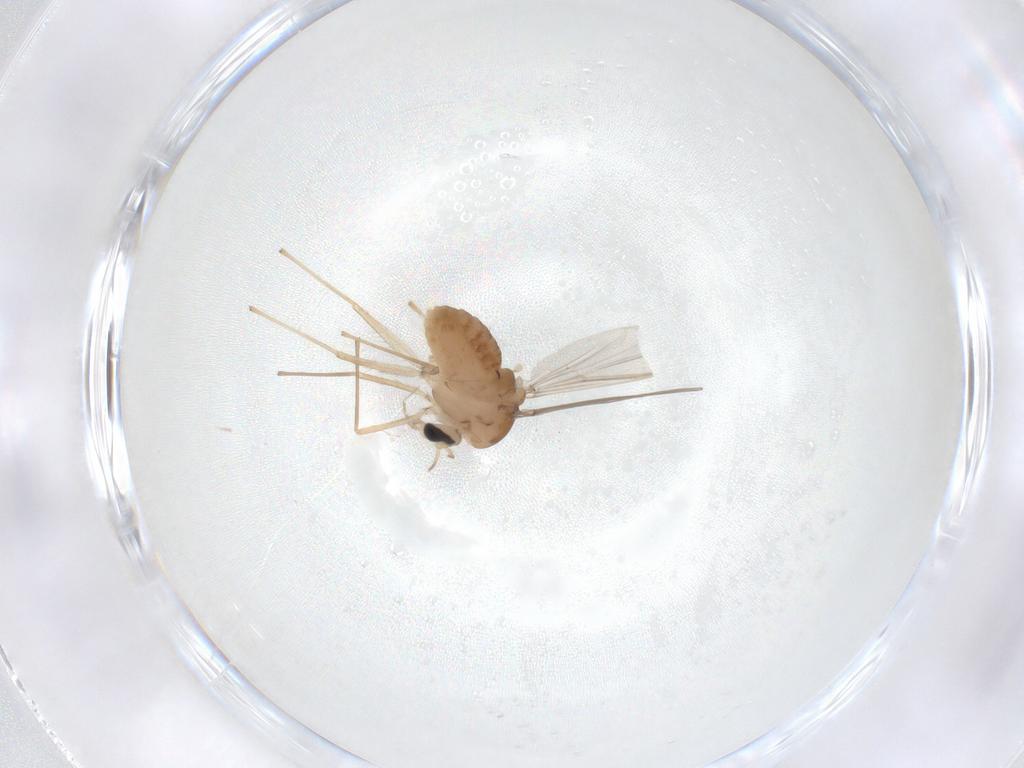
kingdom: Animalia
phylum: Arthropoda
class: Insecta
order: Diptera
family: Chironomidae
